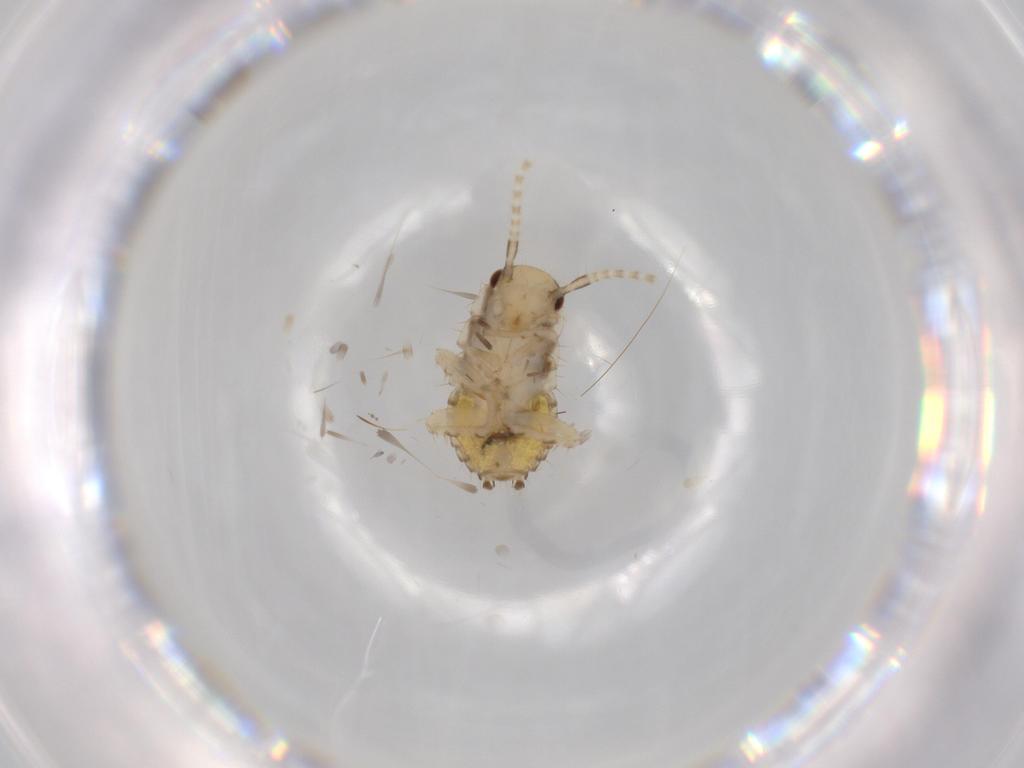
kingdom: Animalia
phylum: Arthropoda
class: Insecta
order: Blattodea
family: Ectobiidae
